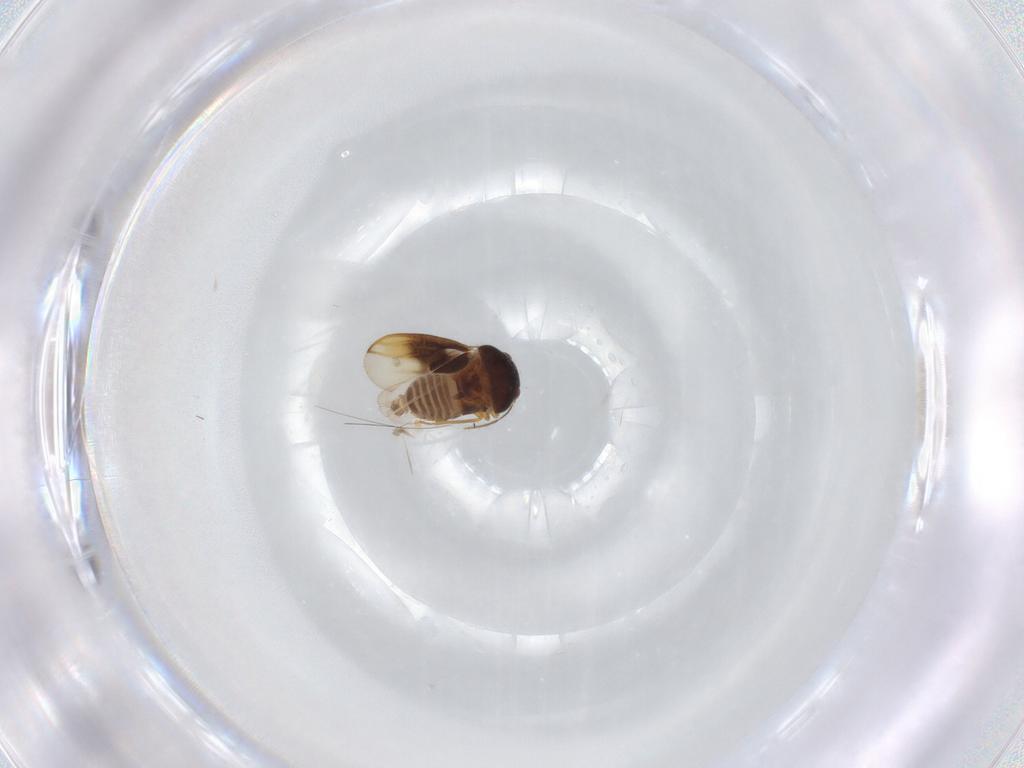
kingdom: Animalia
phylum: Arthropoda
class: Insecta
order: Hemiptera
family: Schizopteridae
